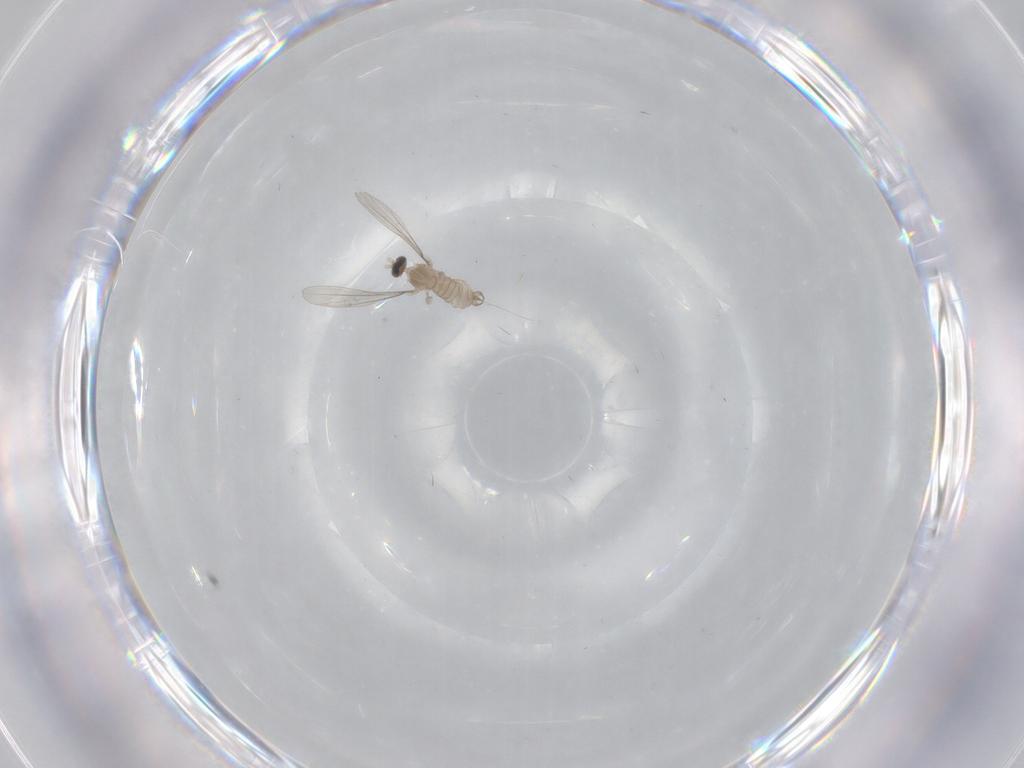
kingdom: Animalia
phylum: Arthropoda
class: Insecta
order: Diptera
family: Cecidomyiidae
